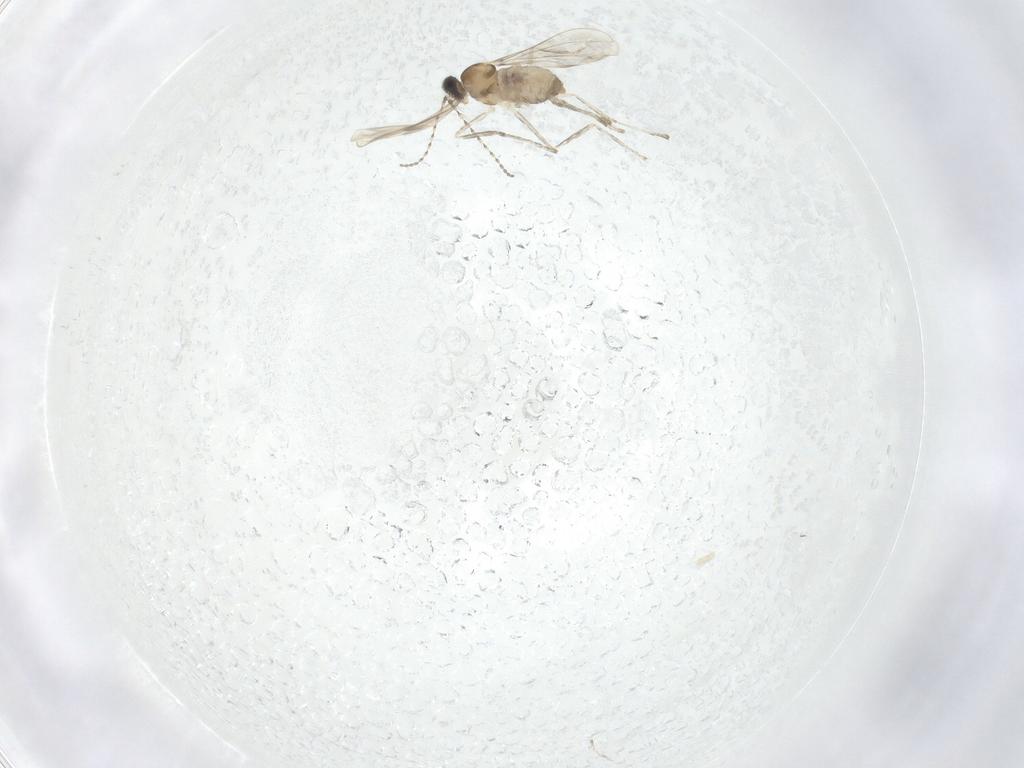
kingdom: Animalia
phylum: Arthropoda
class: Insecta
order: Diptera
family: Cecidomyiidae
